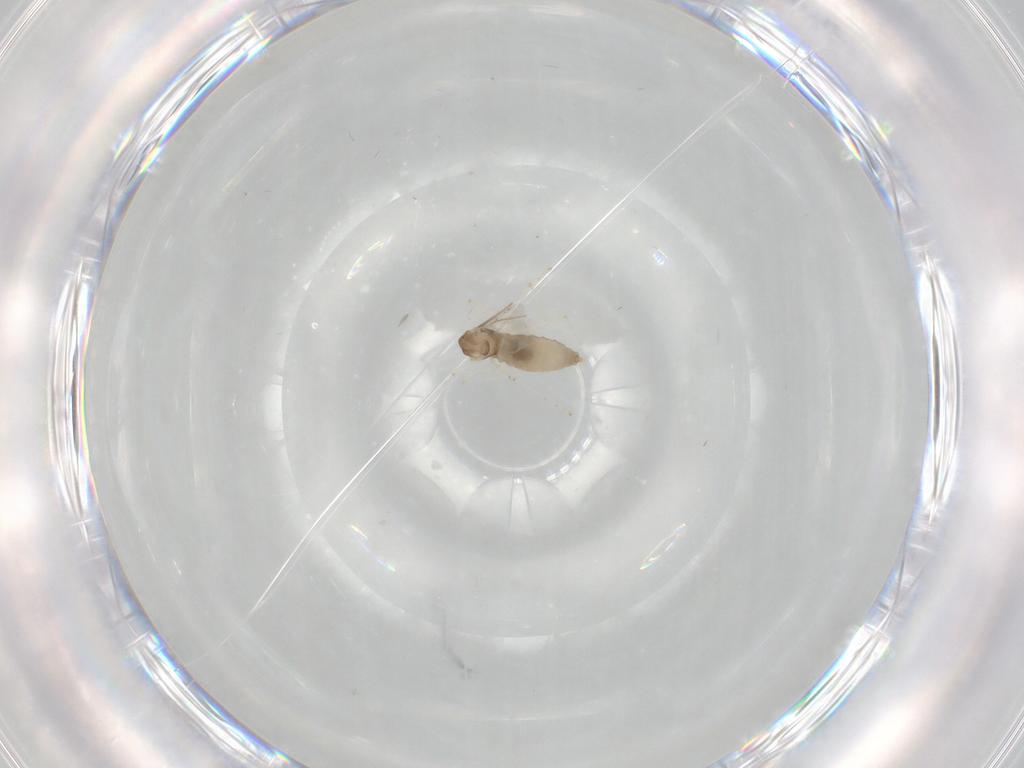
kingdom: Animalia
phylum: Arthropoda
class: Insecta
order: Diptera
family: Cecidomyiidae
